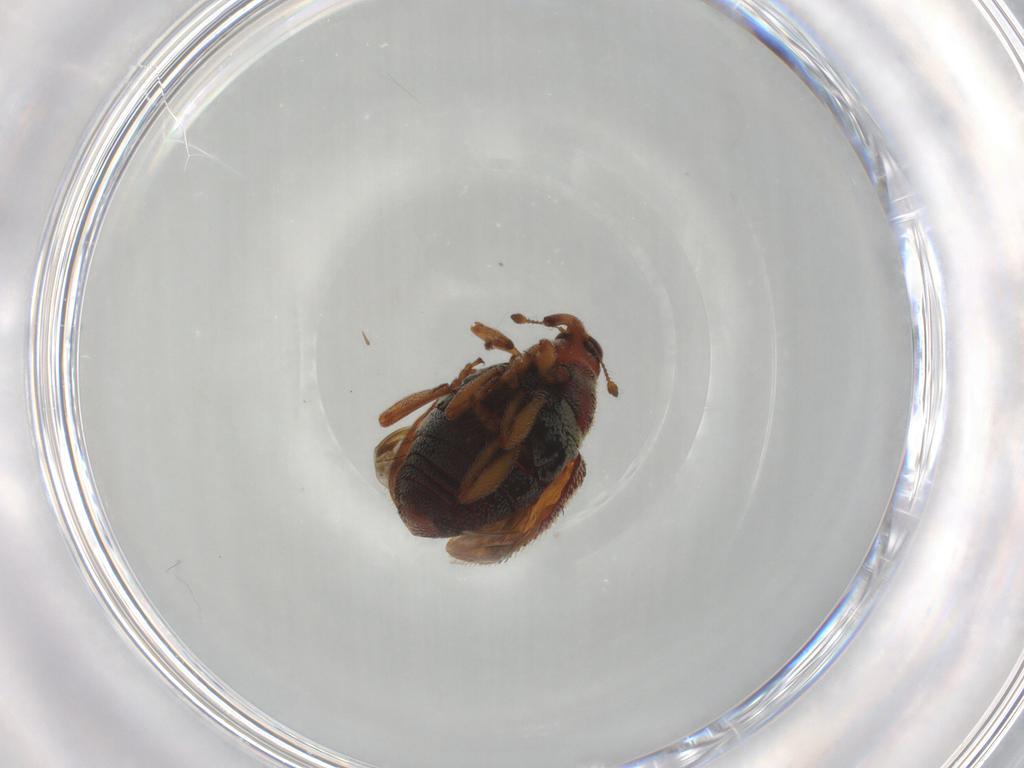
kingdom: Animalia
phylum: Arthropoda
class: Insecta
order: Coleoptera
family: Curculionidae
